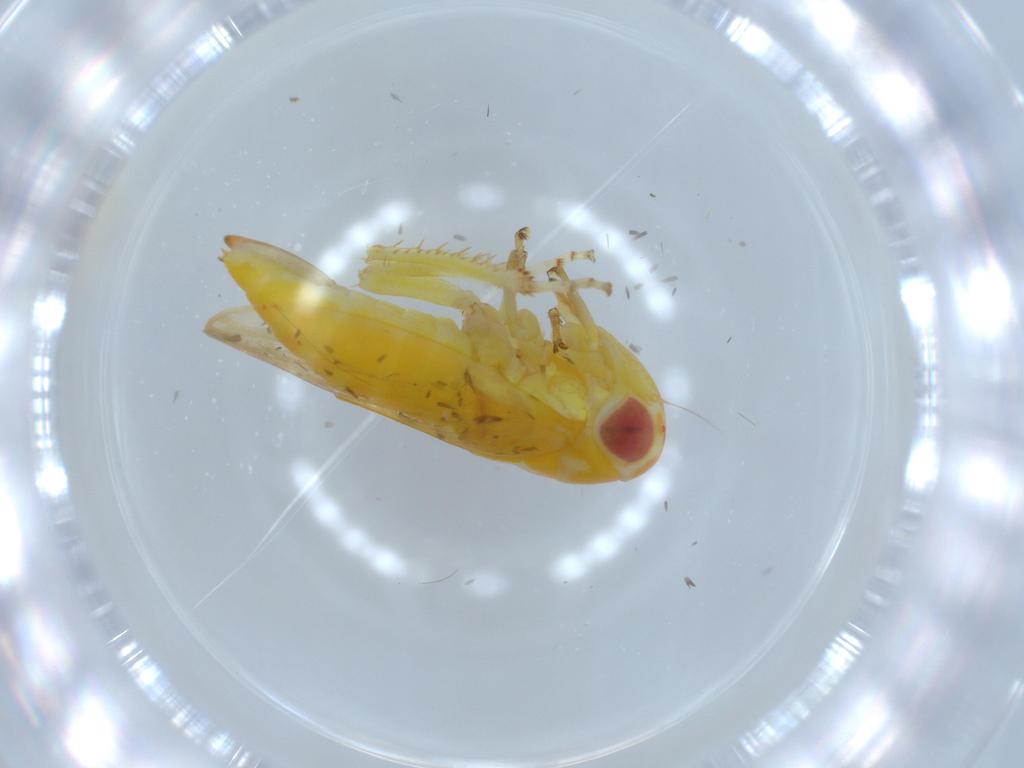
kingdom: Animalia
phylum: Arthropoda
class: Insecta
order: Hemiptera
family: Cicadellidae
